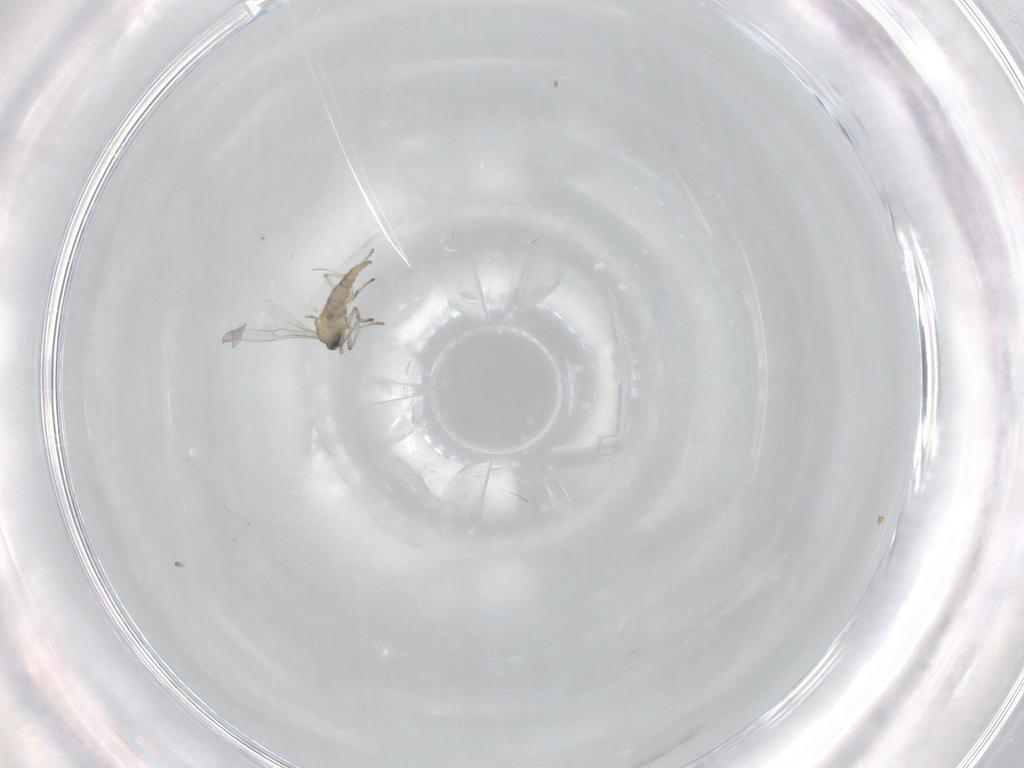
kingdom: Animalia
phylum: Arthropoda
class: Insecta
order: Diptera
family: Cecidomyiidae
